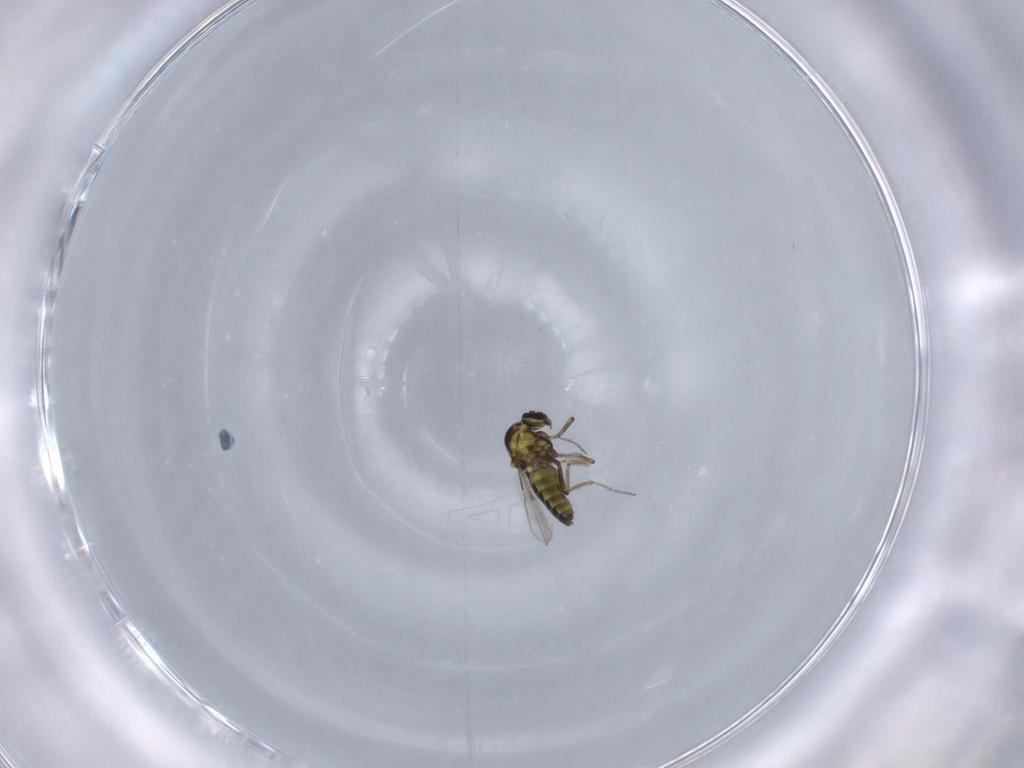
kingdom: Animalia
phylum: Arthropoda
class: Insecta
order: Diptera
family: Ceratopogonidae
